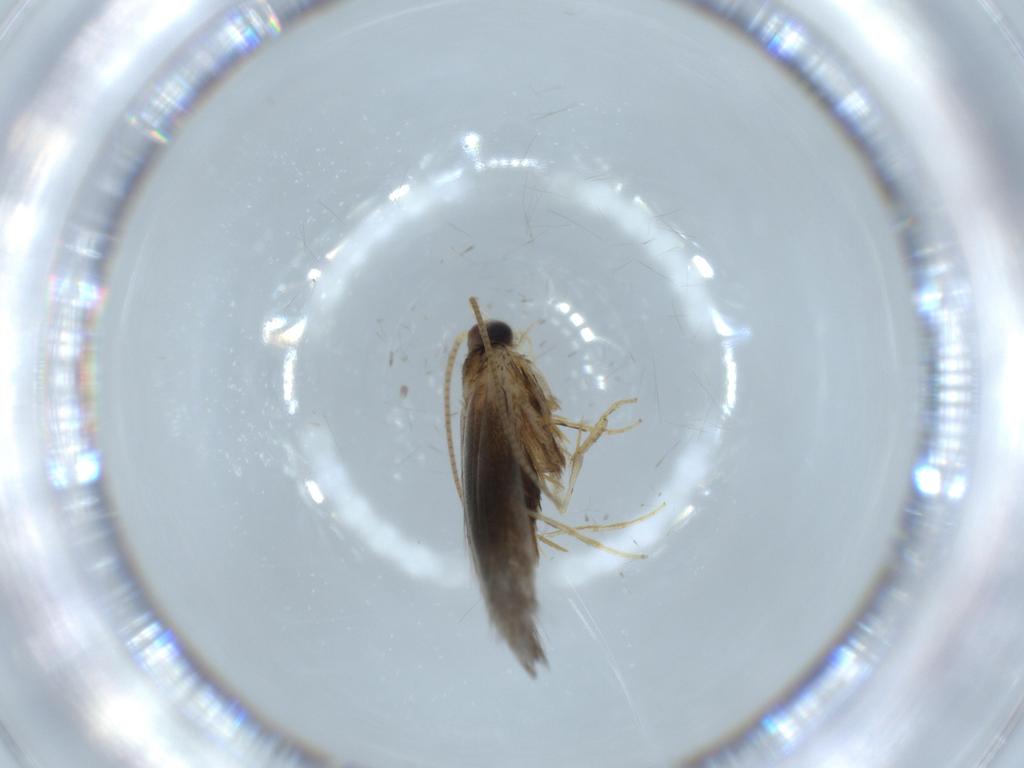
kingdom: Animalia
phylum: Arthropoda
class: Insecta
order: Lepidoptera
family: Tineidae
